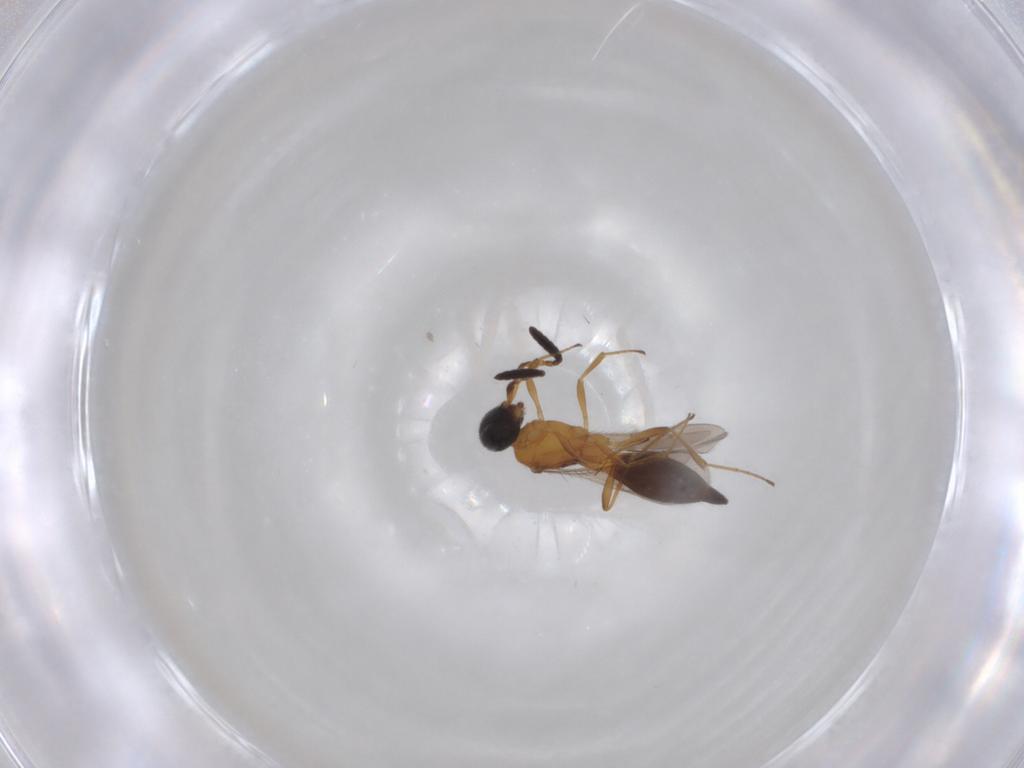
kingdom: Animalia
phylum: Arthropoda
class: Insecta
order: Hymenoptera
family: Scelionidae
